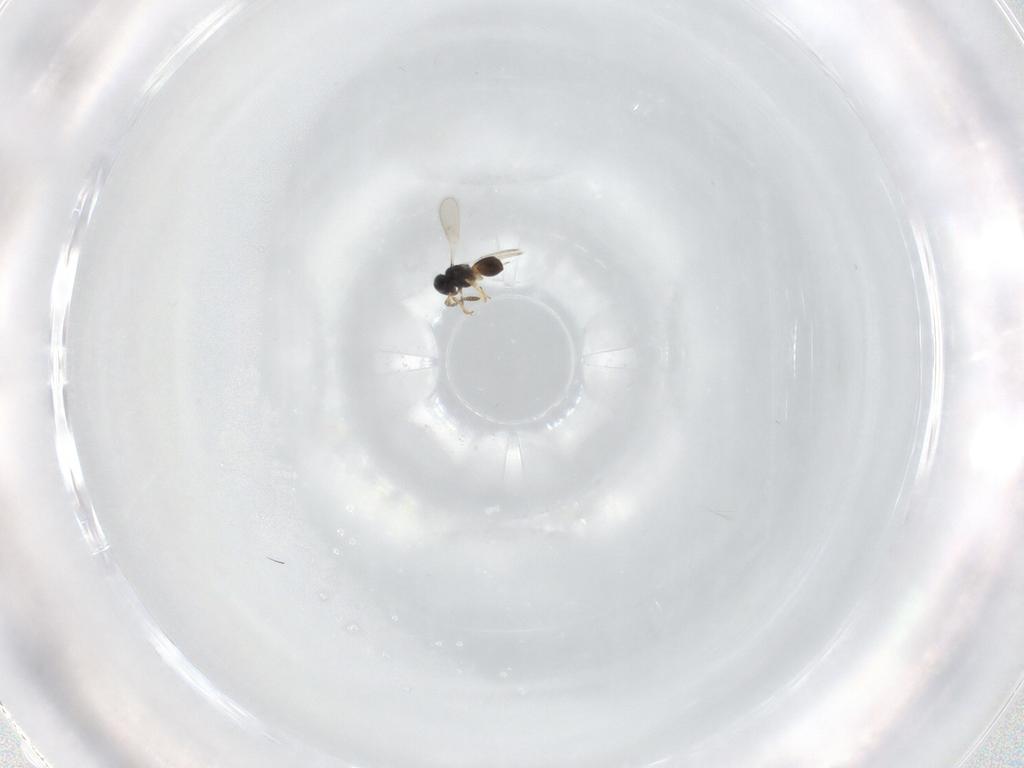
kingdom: Animalia
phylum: Arthropoda
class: Insecta
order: Hymenoptera
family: Scelionidae
